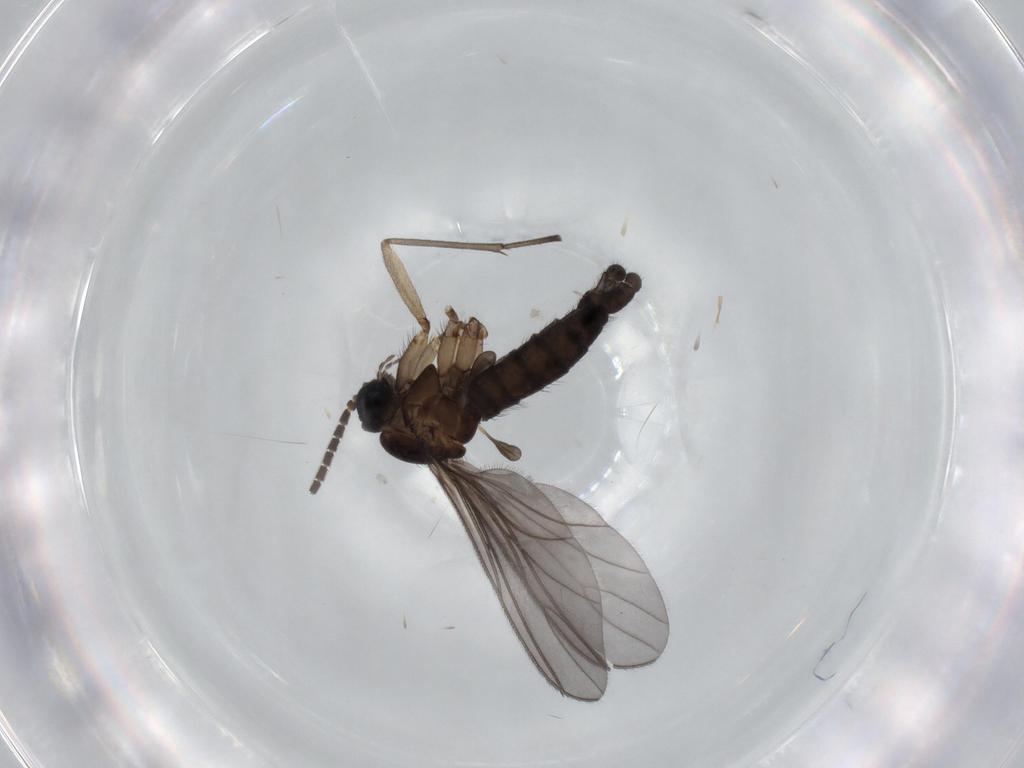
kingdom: Animalia
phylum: Arthropoda
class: Insecta
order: Diptera
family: Sciaridae
